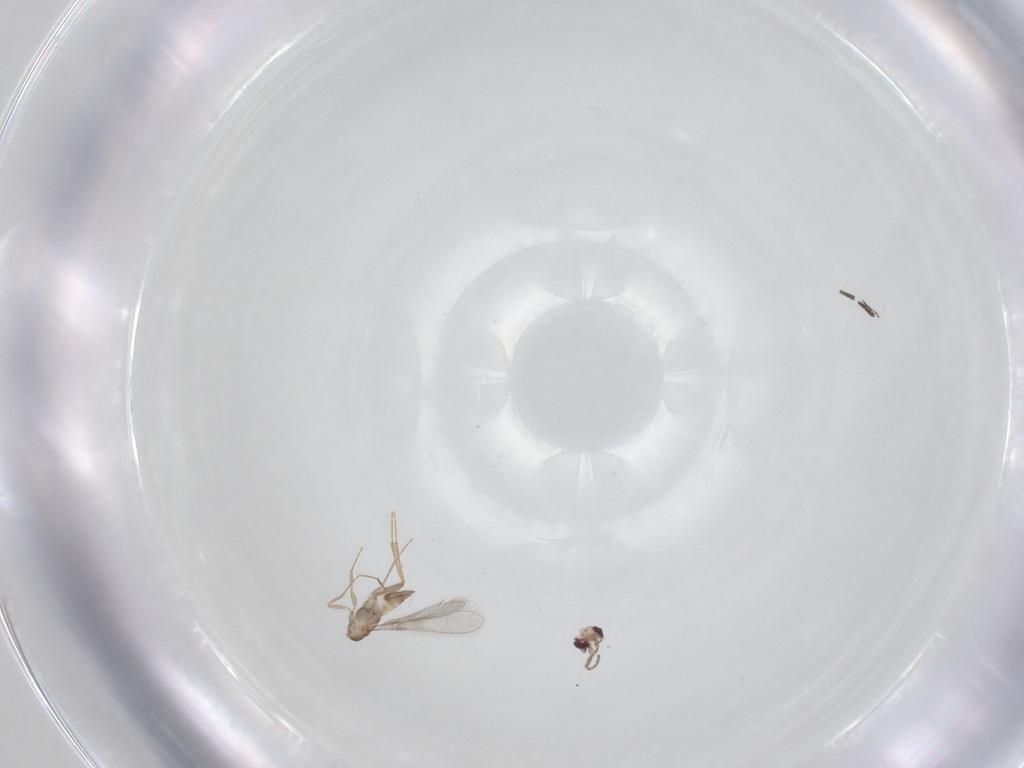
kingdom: Animalia
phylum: Arthropoda
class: Insecta
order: Hymenoptera
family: Mymaridae
